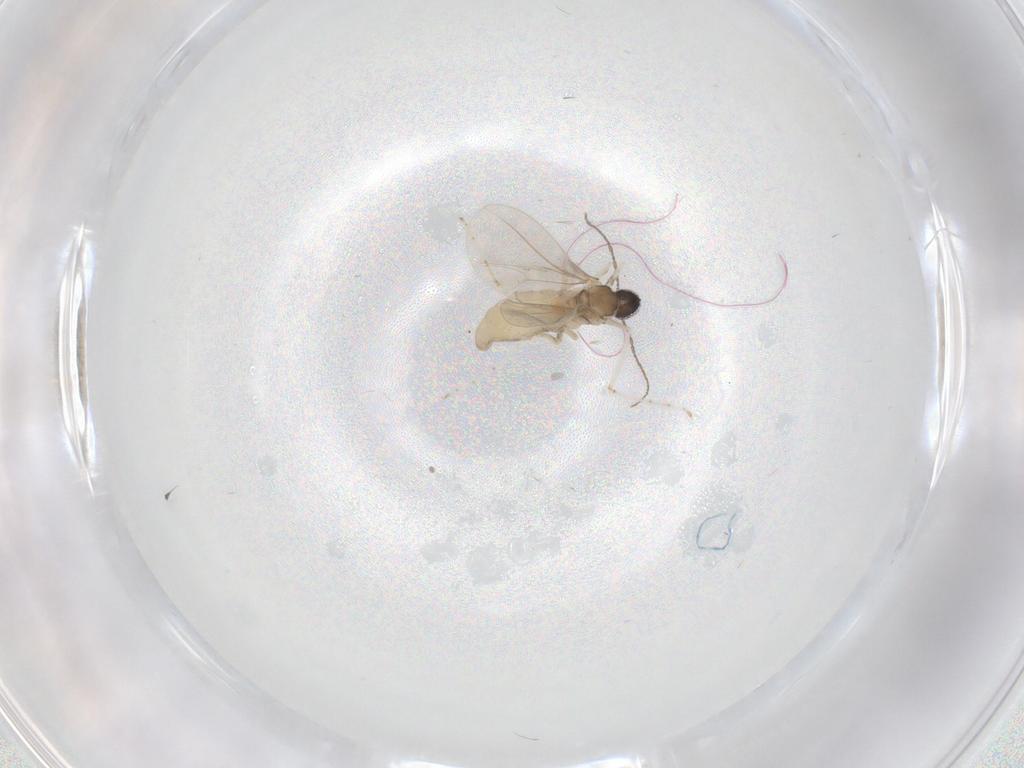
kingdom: Animalia
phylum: Arthropoda
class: Insecta
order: Diptera
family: Cecidomyiidae
